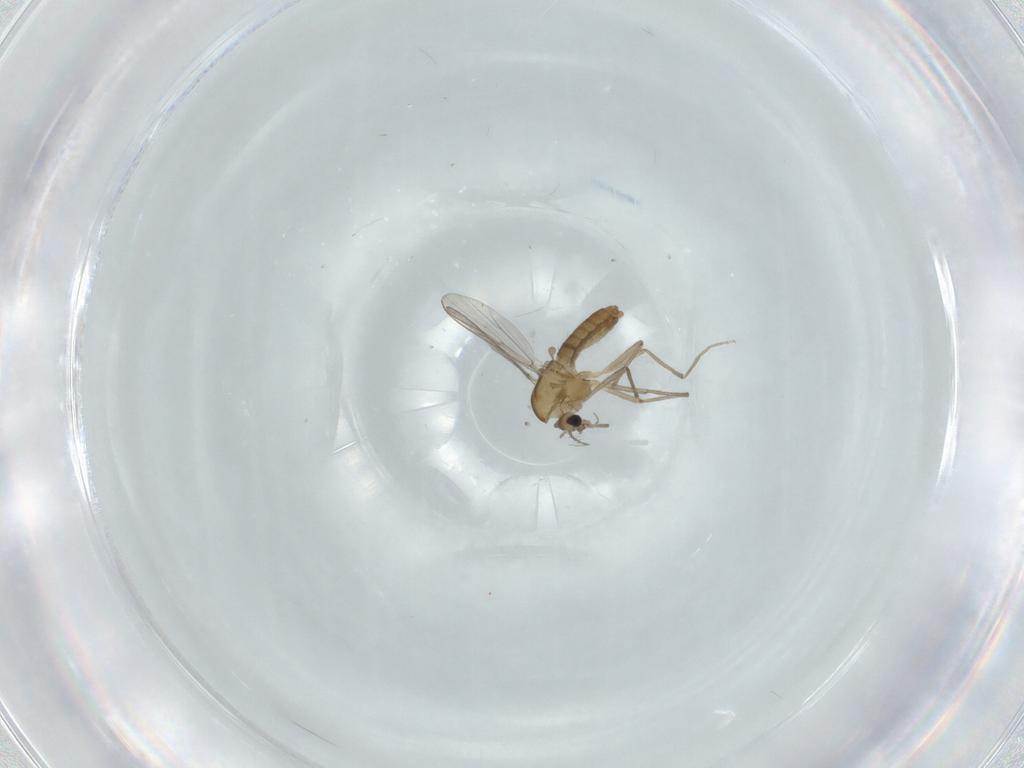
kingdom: Animalia
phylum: Arthropoda
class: Insecta
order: Diptera
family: Chironomidae
